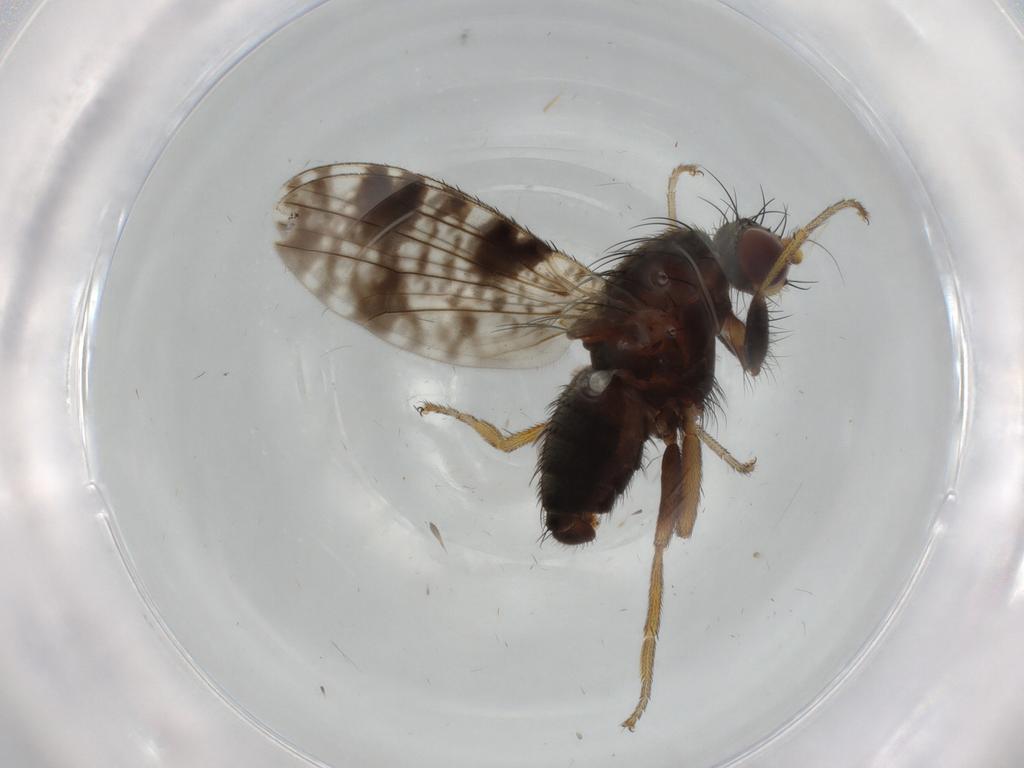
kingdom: Animalia
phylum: Arthropoda
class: Insecta
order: Diptera
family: Tephritidae
